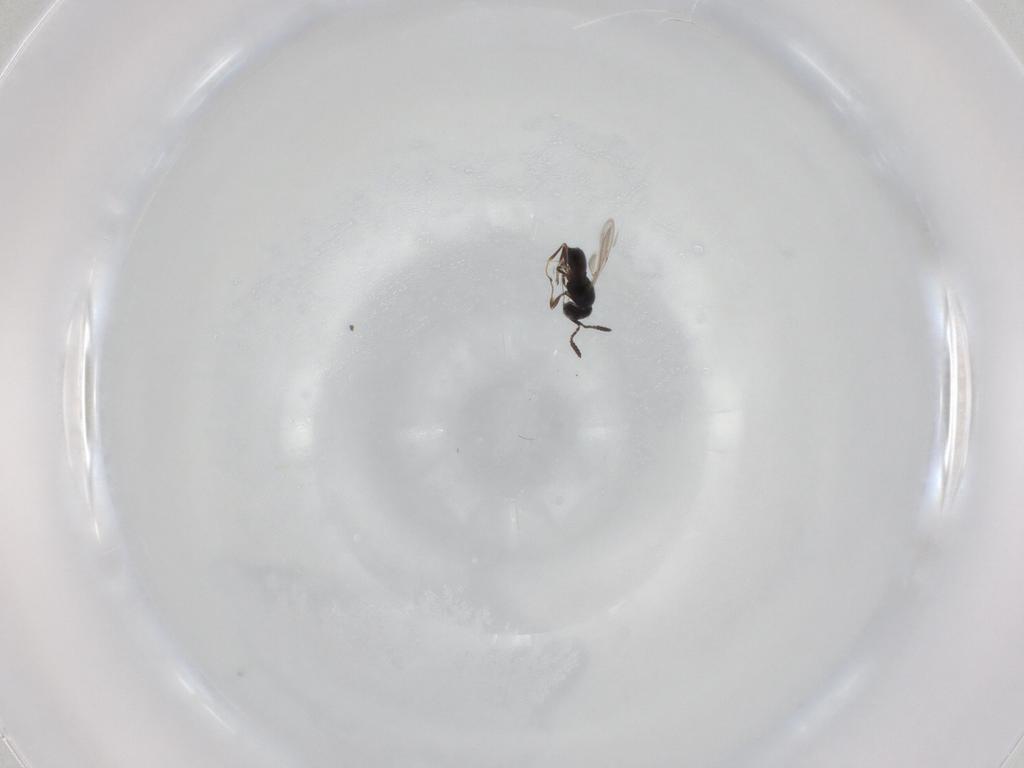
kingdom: Animalia
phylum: Arthropoda
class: Insecta
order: Hymenoptera
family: Scelionidae
